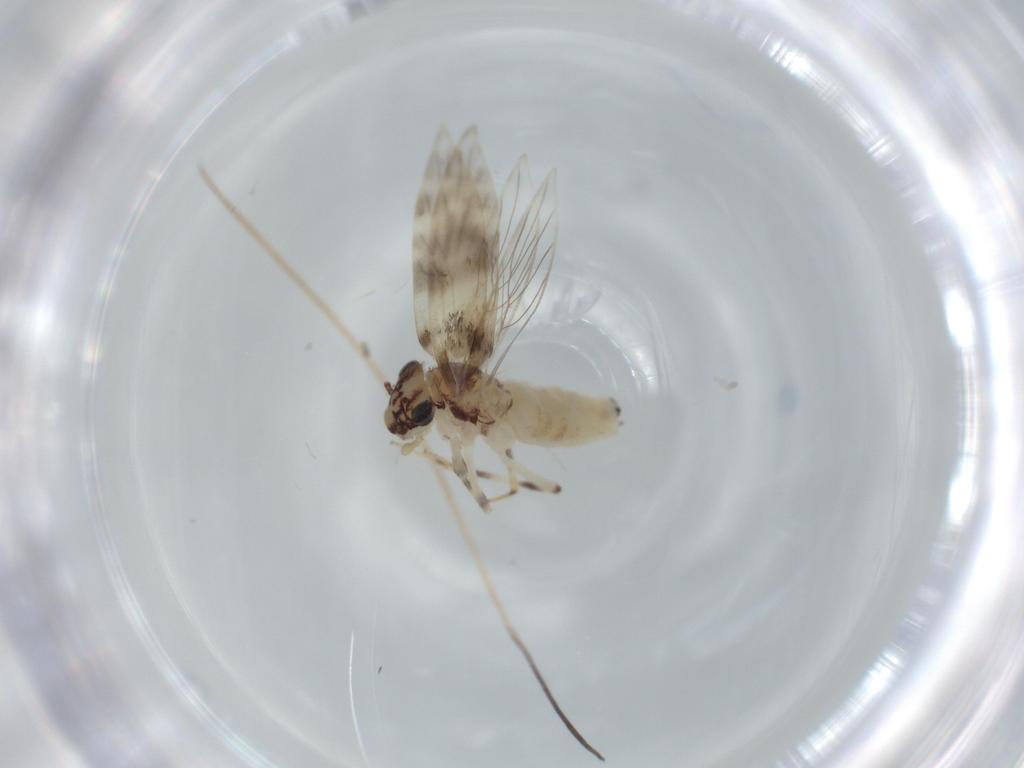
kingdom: Animalia
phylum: Arthropoda
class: Insecta
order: Psocodea
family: Lepidopsocidae
